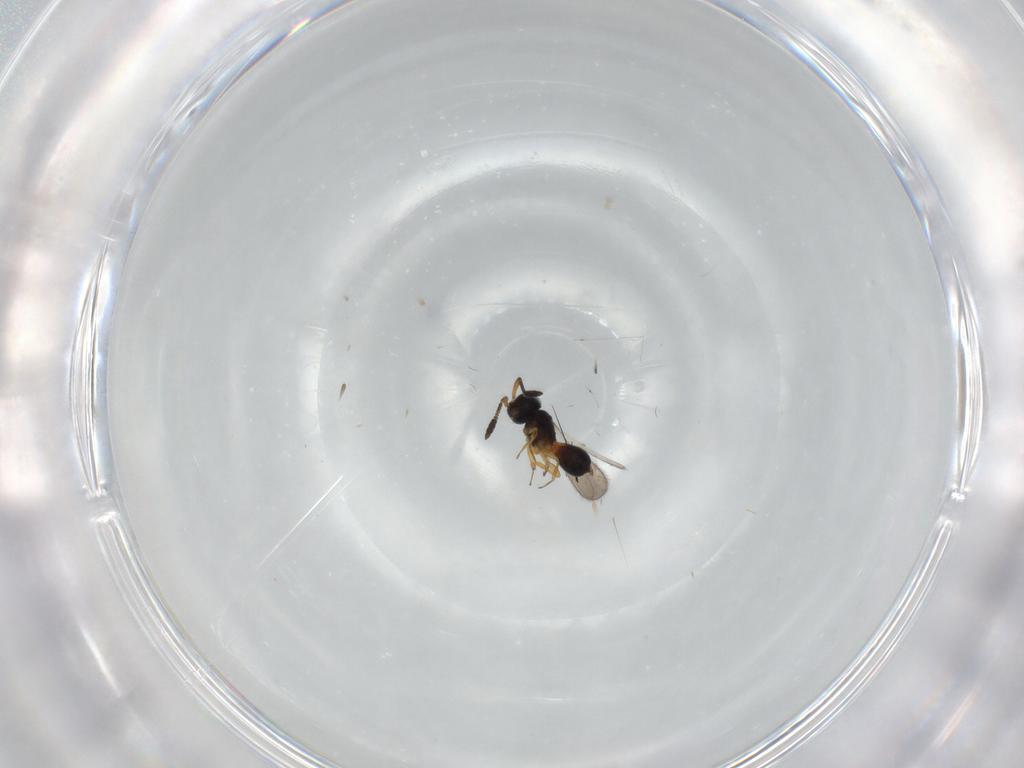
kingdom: Animalia
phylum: Arthropoda
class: Insecta
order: Hymenoptera
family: Scelionidae
